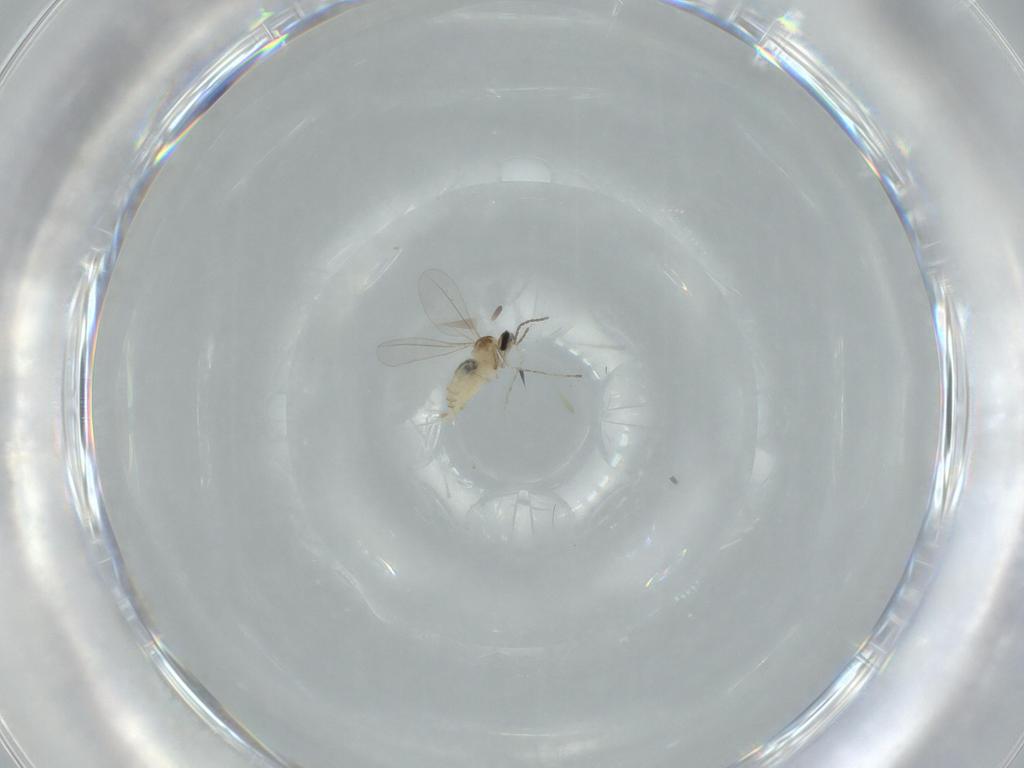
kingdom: Animalia
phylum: Arthropoda
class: Insecta
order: Diptera
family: Cecidomyiidae
